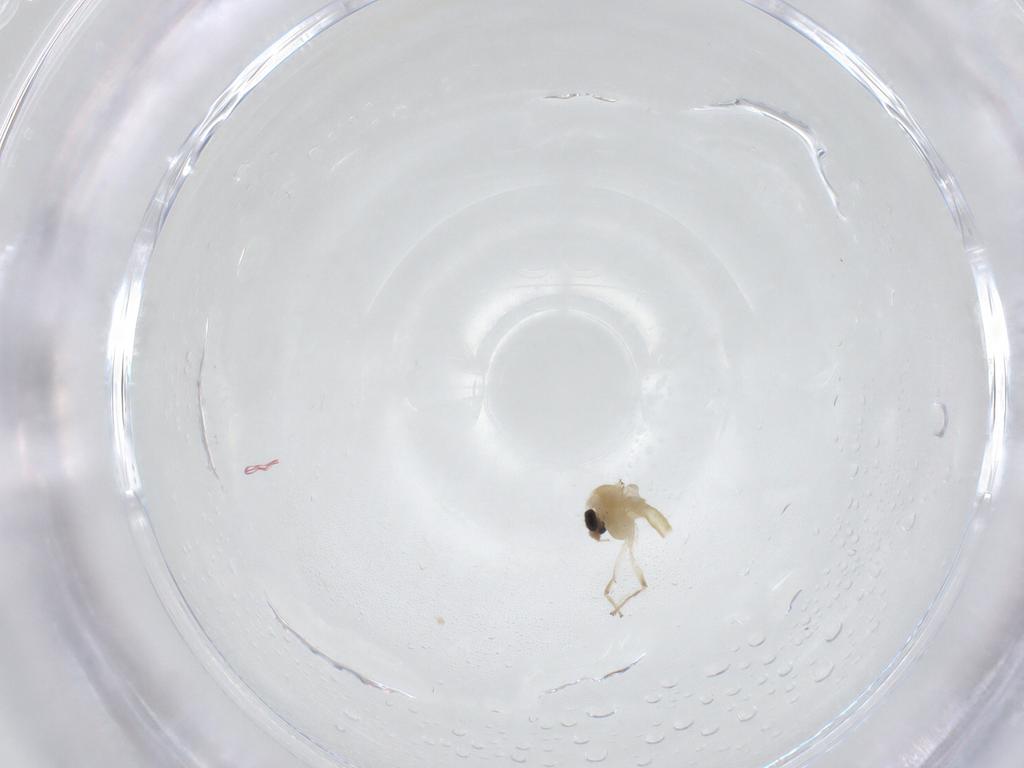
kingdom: Animalia
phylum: Arthropoda
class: Insecta
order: Diptera
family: Chironomidae
